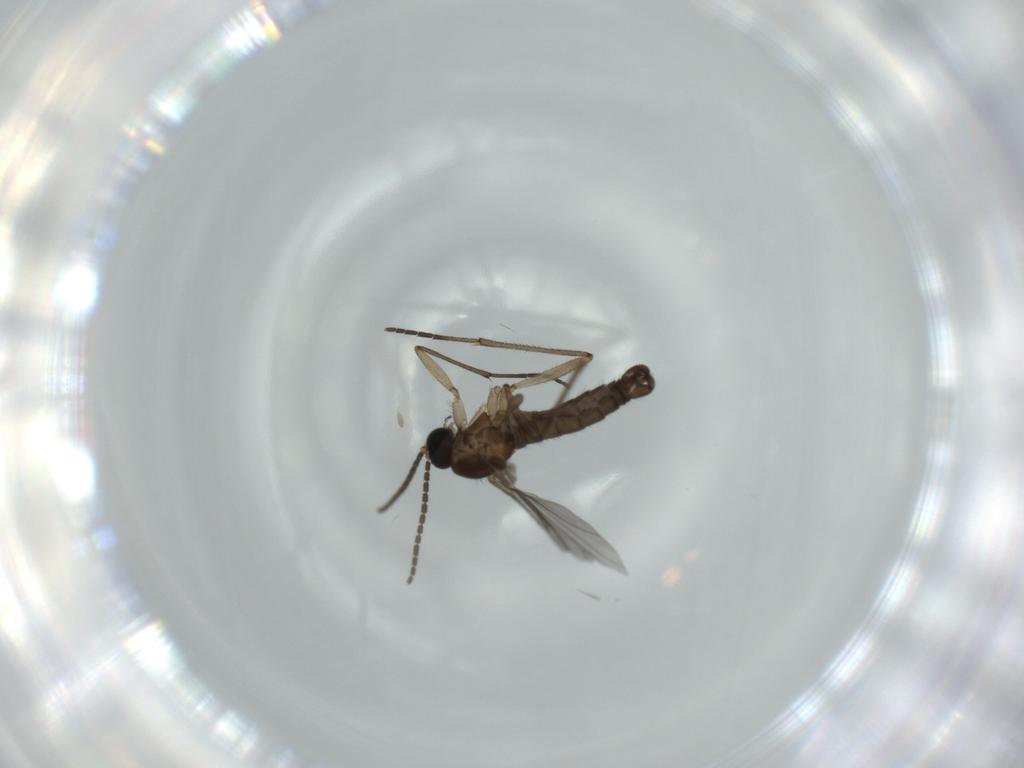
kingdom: Animalia
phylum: Arthropoda
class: Insecta
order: Diptera
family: Sciaridae
